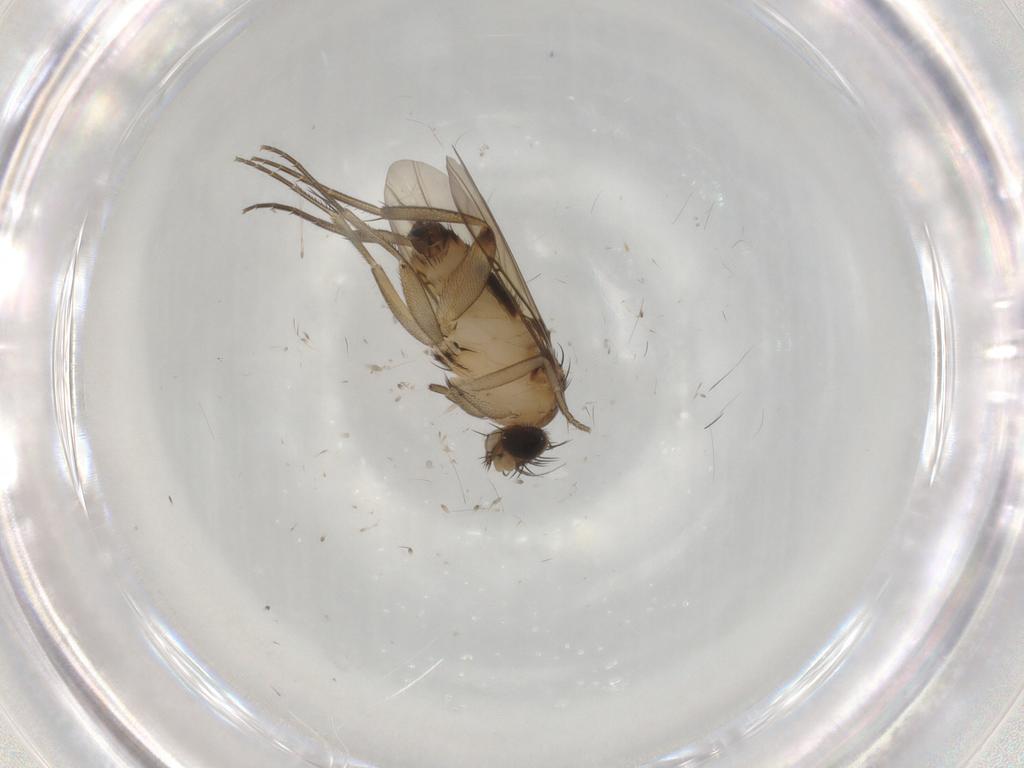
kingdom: Animalia
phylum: Arthropoda
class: Insecta
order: Diptera
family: Phoridae
